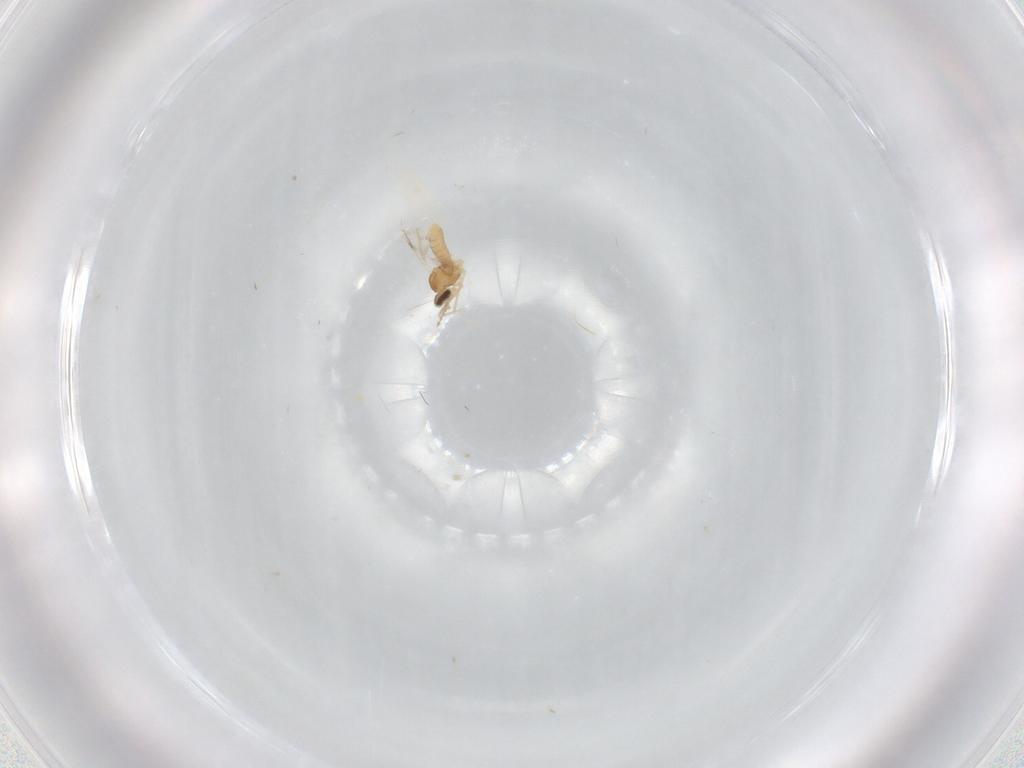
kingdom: Animalia
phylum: Arthropoda
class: Insecta
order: Diptera
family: Cecidomyiidae
